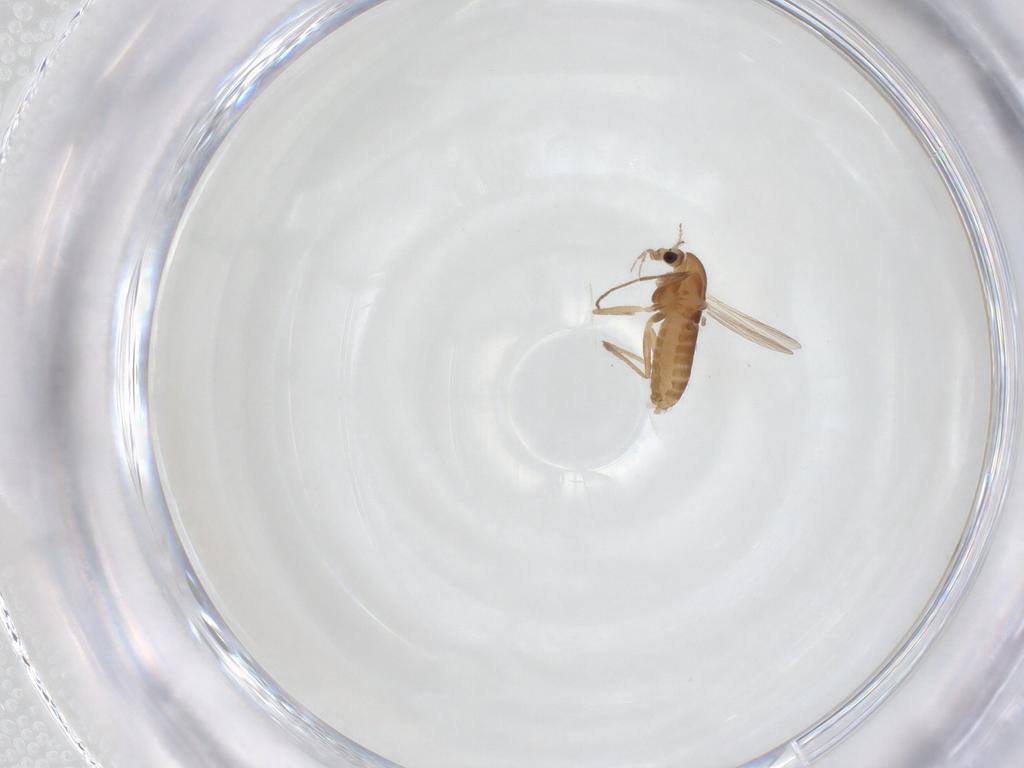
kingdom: Animalia
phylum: Arthropoda
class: Insecta
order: Diptera
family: Chironomidae
